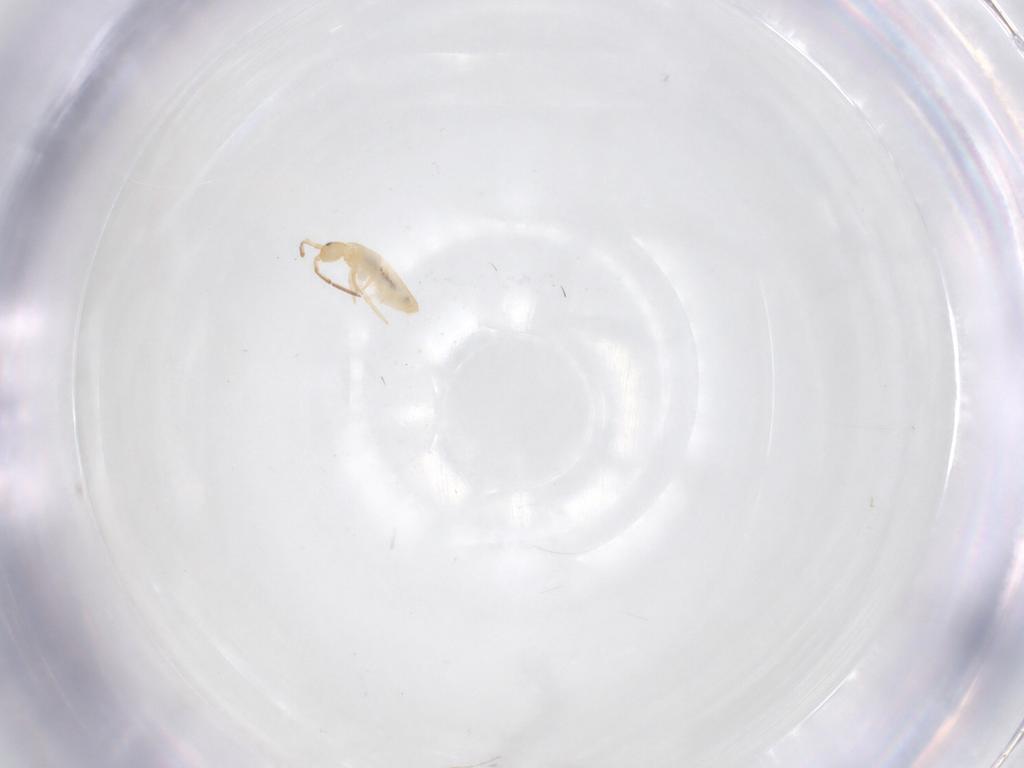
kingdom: Animalia
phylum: Arthropoda
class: Collembola
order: Entomobryomorpha
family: Entomobryidae
